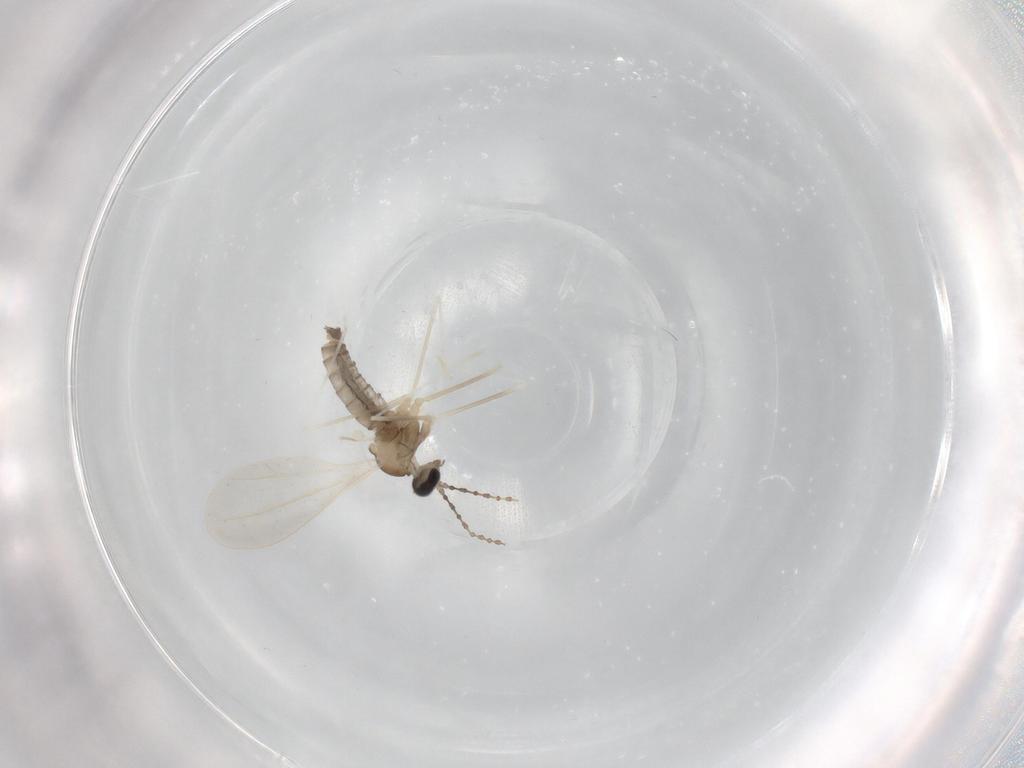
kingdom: Animalia
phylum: Arthropoda
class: Insecta
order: Diptera
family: Cecidomyiidae
